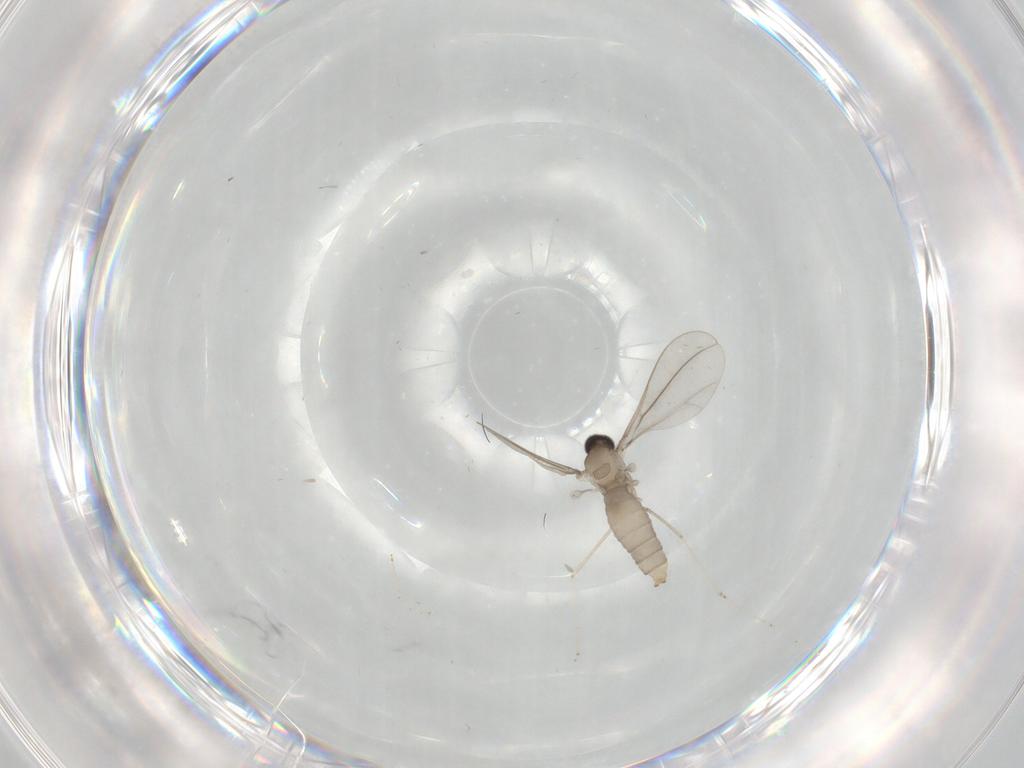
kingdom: Animalia
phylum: Arthropoda
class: Insecta
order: Diptera
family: Cecidomyiidae
